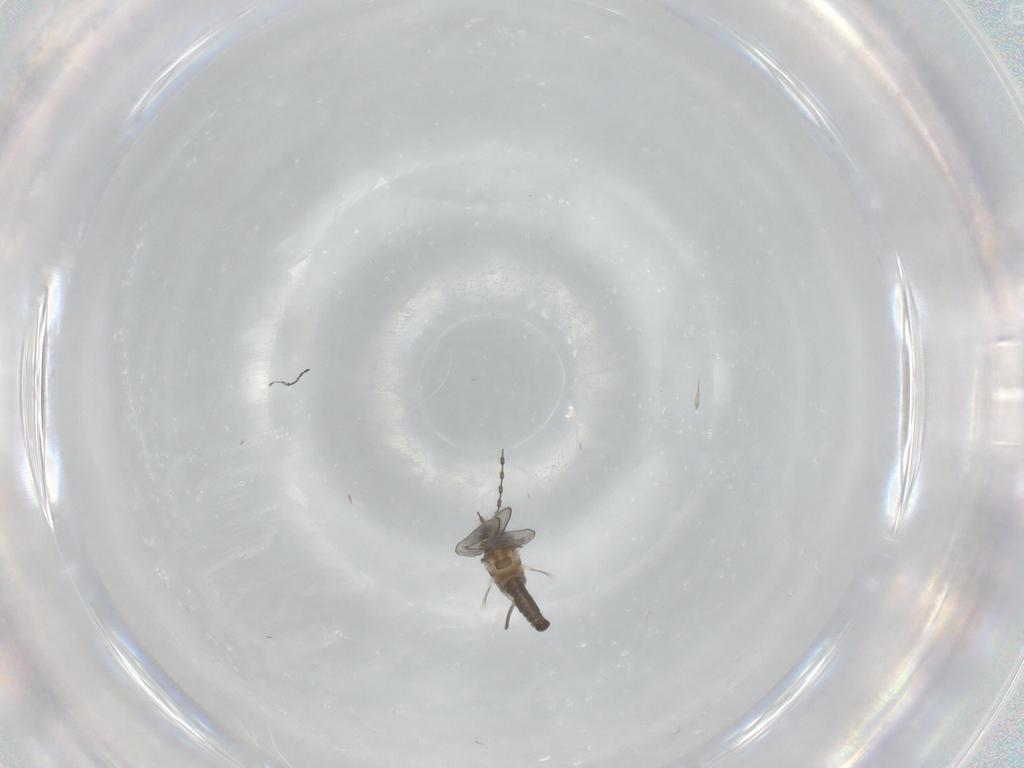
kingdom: Animalia
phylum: Arthropoda
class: Insecta
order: Diptera
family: Cecidomyiidae
